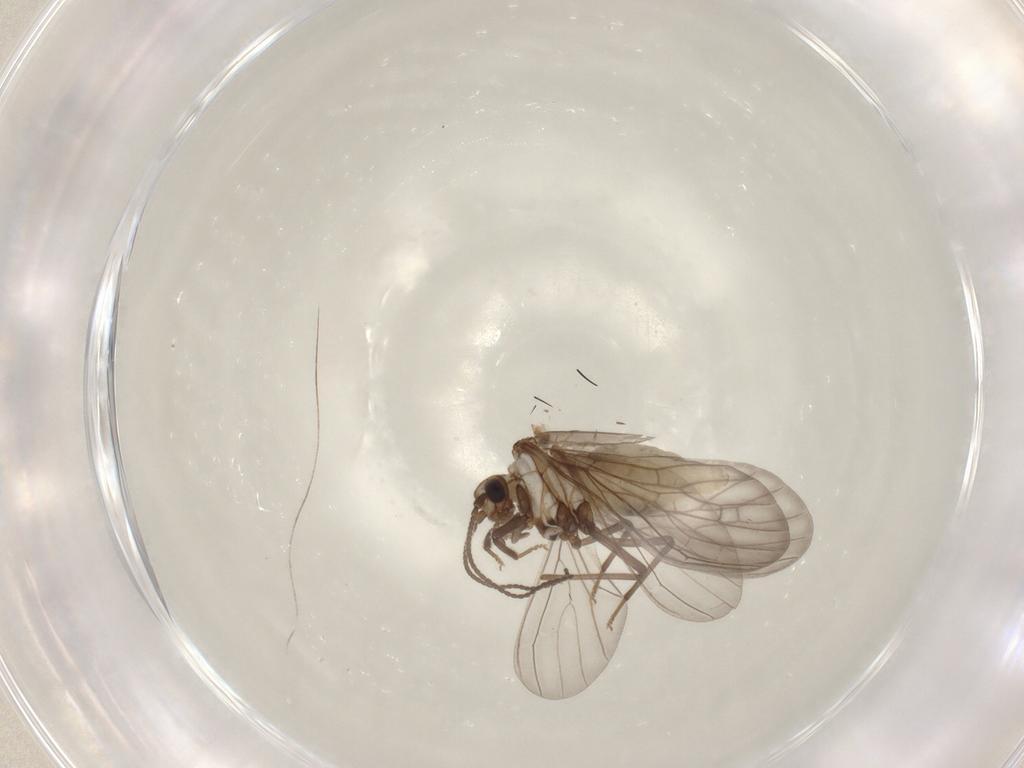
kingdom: Animalia
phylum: Arthropoda
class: Insecta
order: Neuroptera
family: Coniopterygidae
